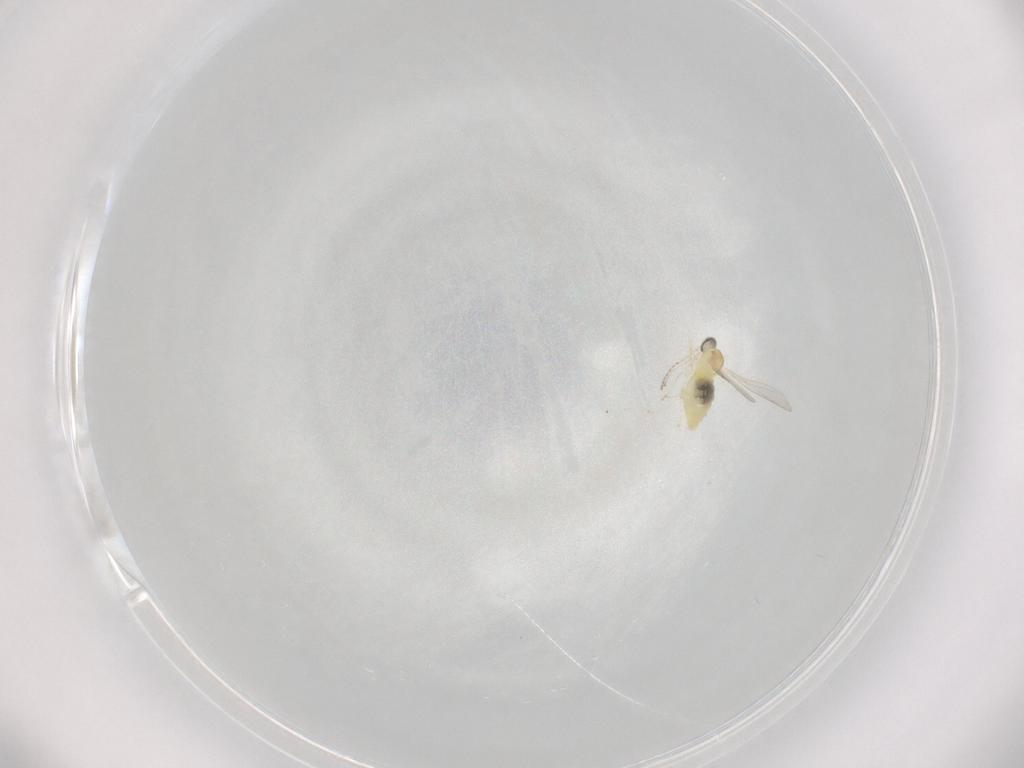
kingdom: Animalia
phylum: Arthropoda
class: Insecta
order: Diptera
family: Cecidomyiidae
